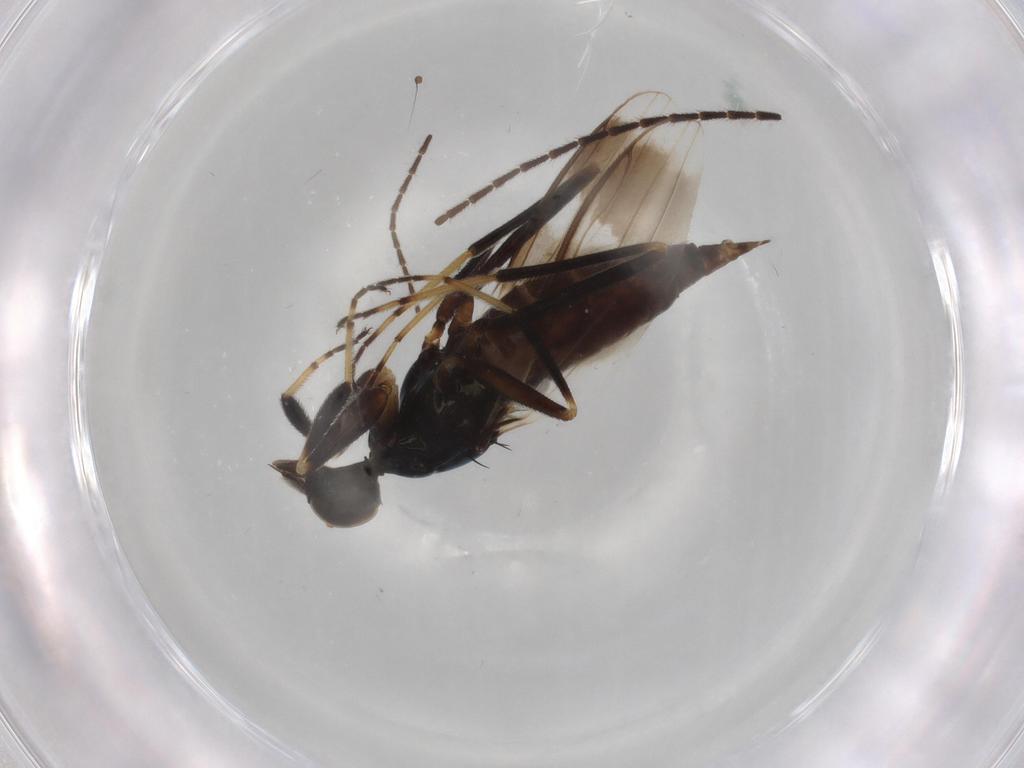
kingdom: Animalia
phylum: Arthropoda
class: Insecta
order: Diptera
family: Hybotidae
